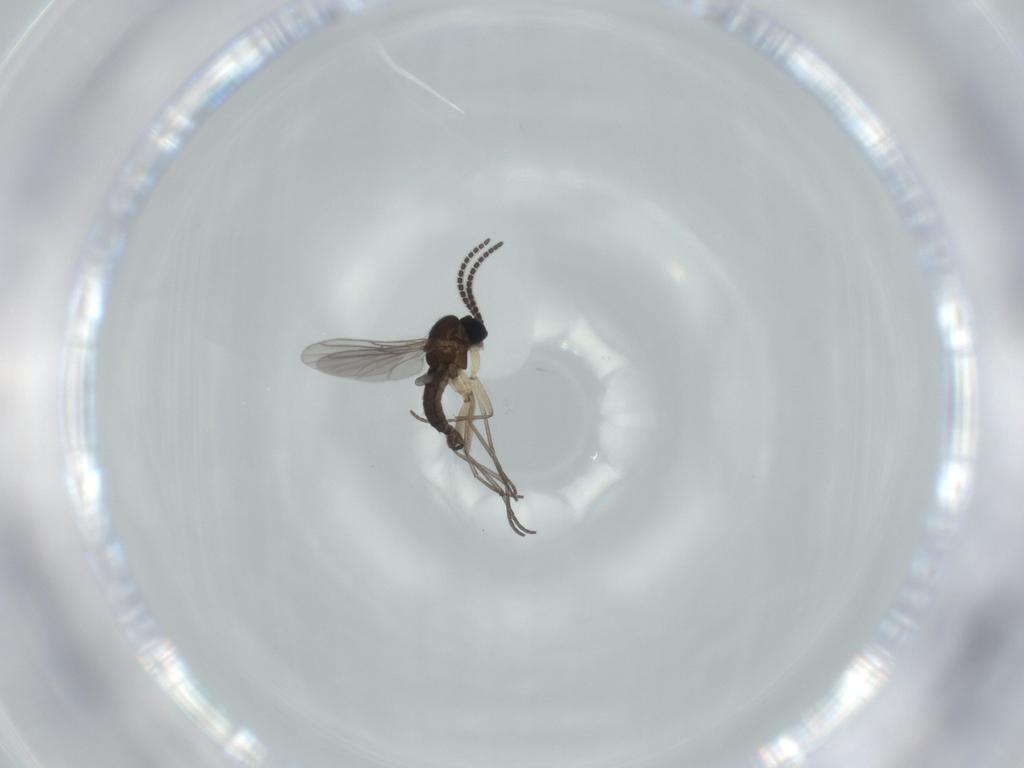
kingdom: Animalia
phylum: Arthropoda
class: Insecta
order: Diptera
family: Sciaridae
